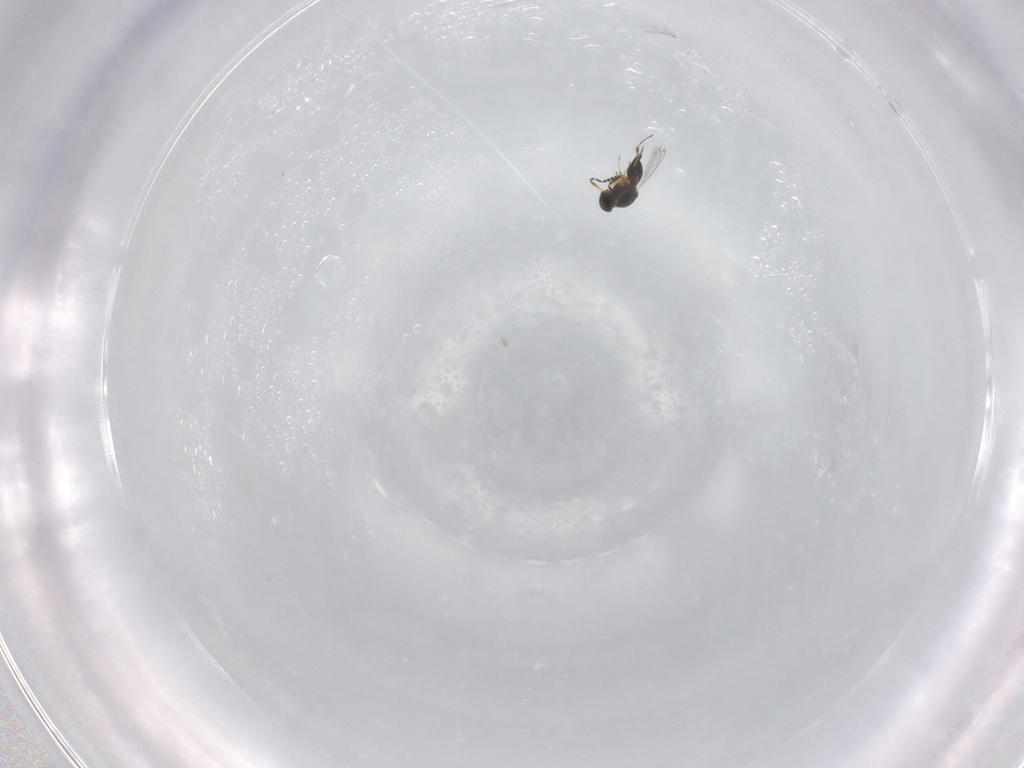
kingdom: Animalia
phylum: Arthropoda
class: Insecta
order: Hymenoptera
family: Platygastridae
